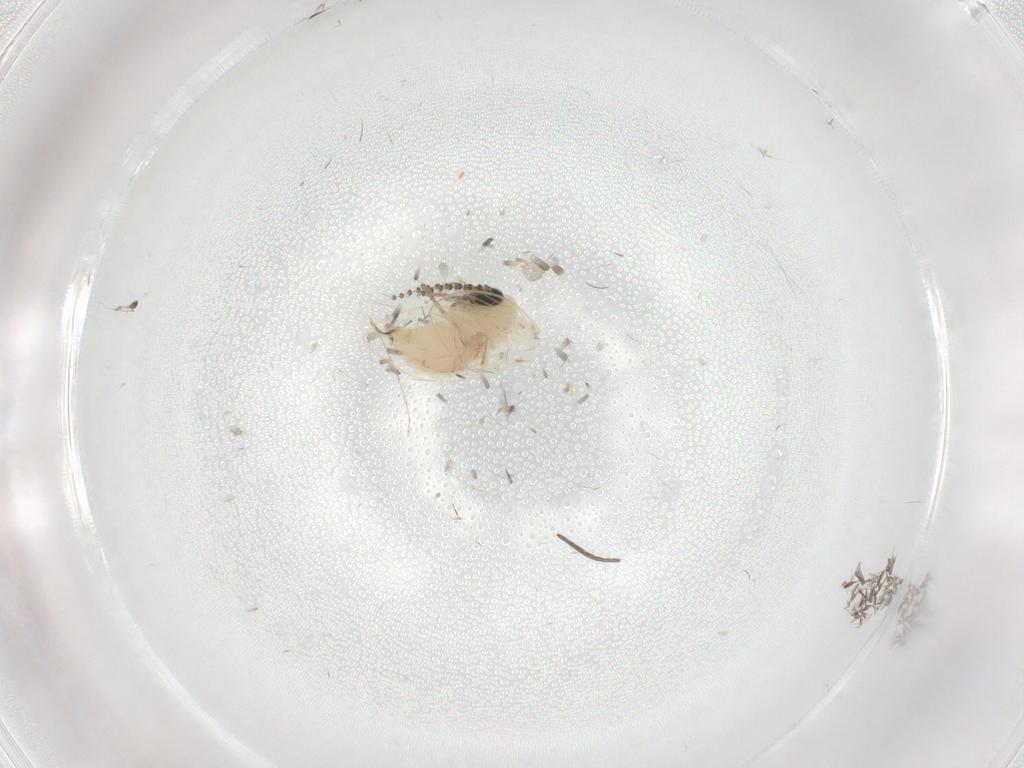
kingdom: Animalia
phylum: Arthropoda
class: Insecta
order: Diptera
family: Psychodidae
